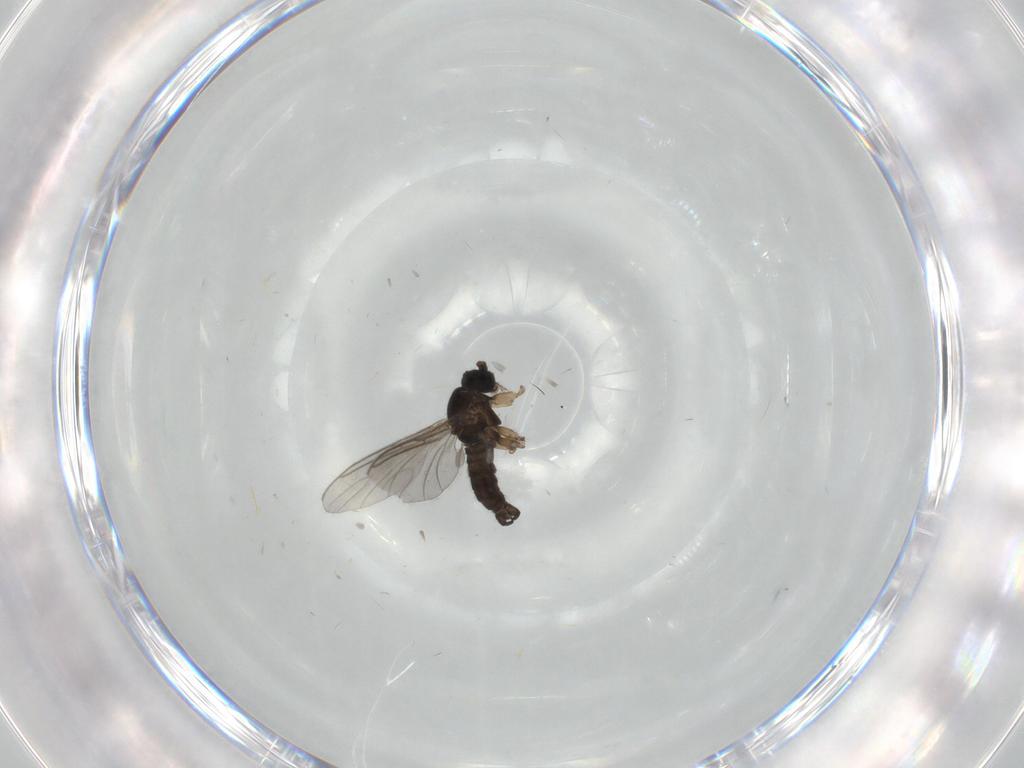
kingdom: Animalia
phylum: Arthropoda
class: Insecta
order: Diptera
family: Sciaridae
